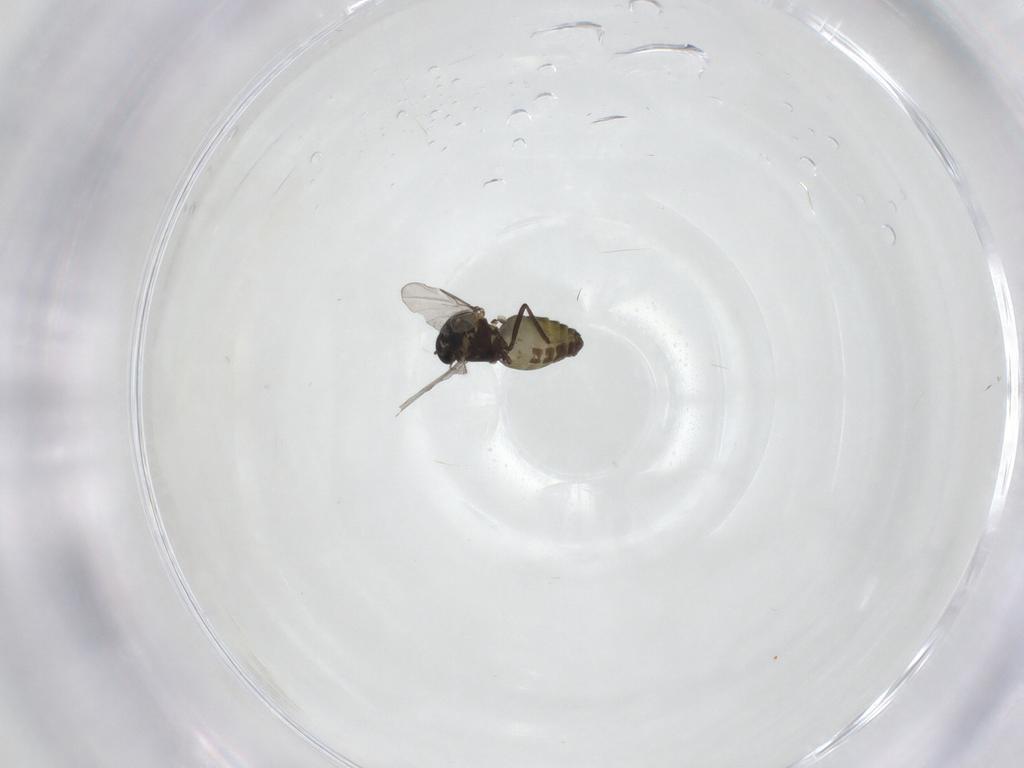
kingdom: Animalia
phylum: Arthropoda
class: Insecta
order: Diptera
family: Ceratopogonidae
